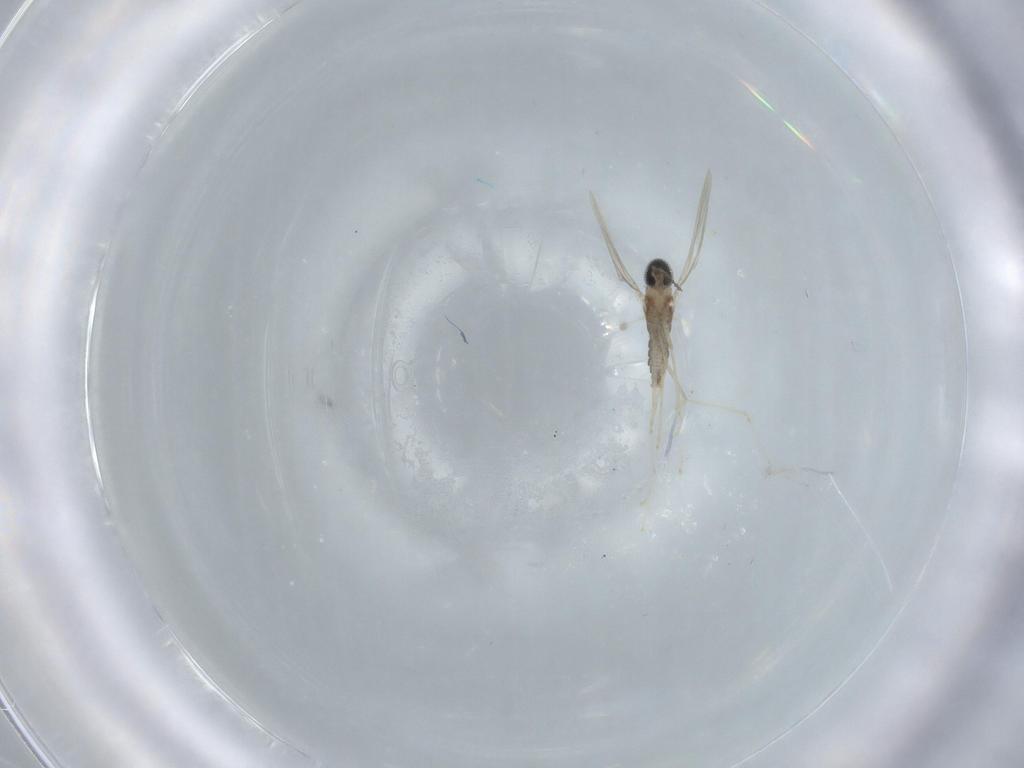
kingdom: Animalia
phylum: Arthropoda
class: Insecta
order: Diptera
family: Cecidomyiidae
